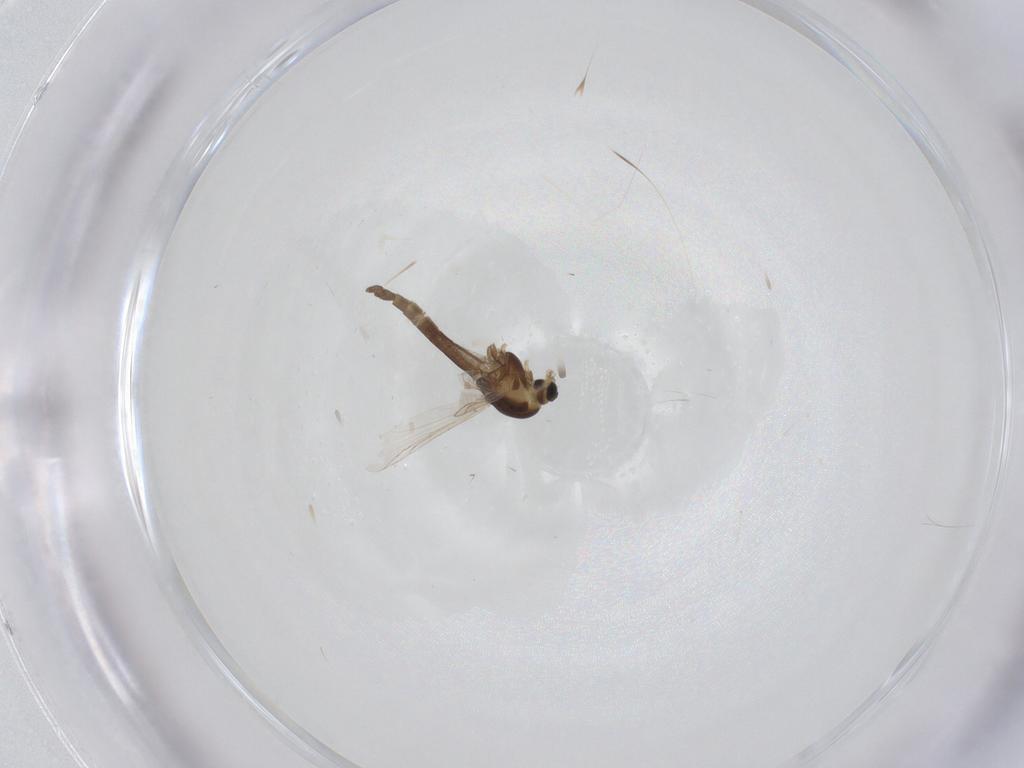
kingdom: Animalia
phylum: Arthropoda
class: Insecta
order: Diptera
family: Chironomidae
